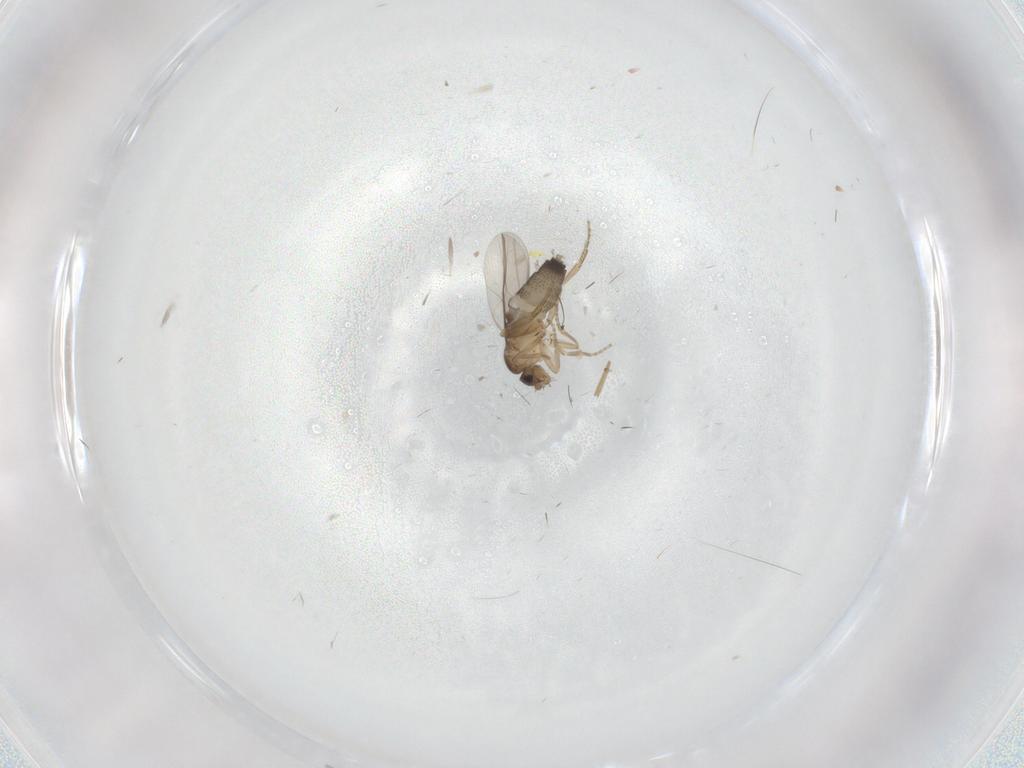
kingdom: Animalia
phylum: Arthropoda
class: Insecta
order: Diptera
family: Phoridae
